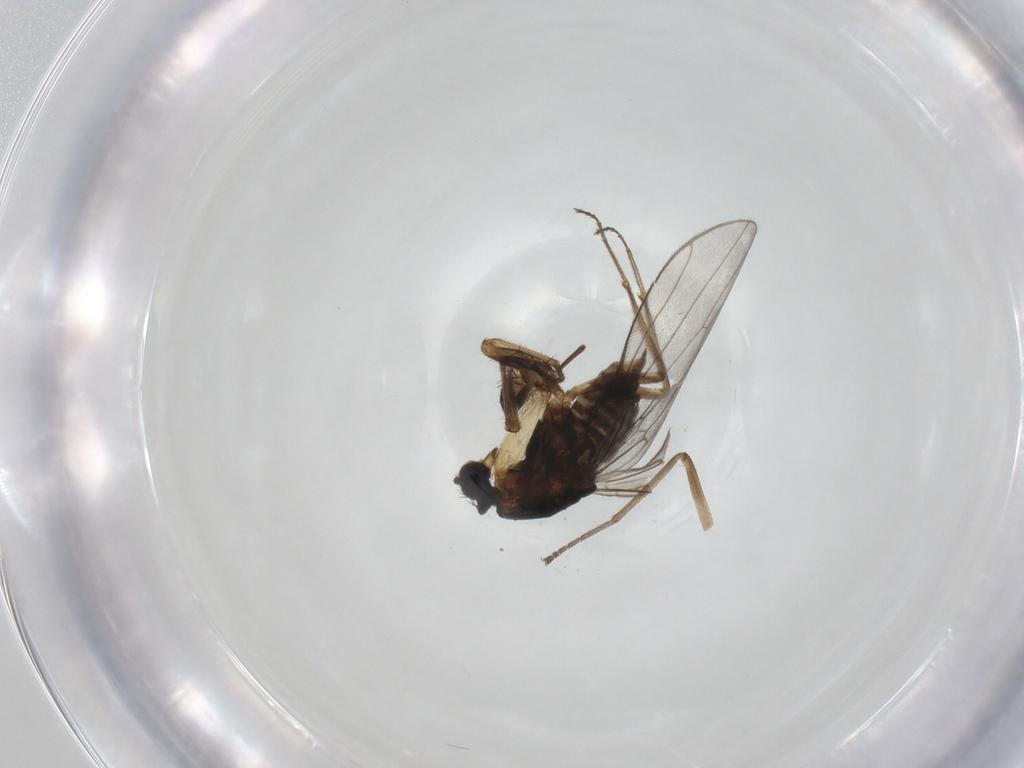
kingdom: Animalia
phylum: Arthropoda
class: Insecta
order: Diptera
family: Empididae
